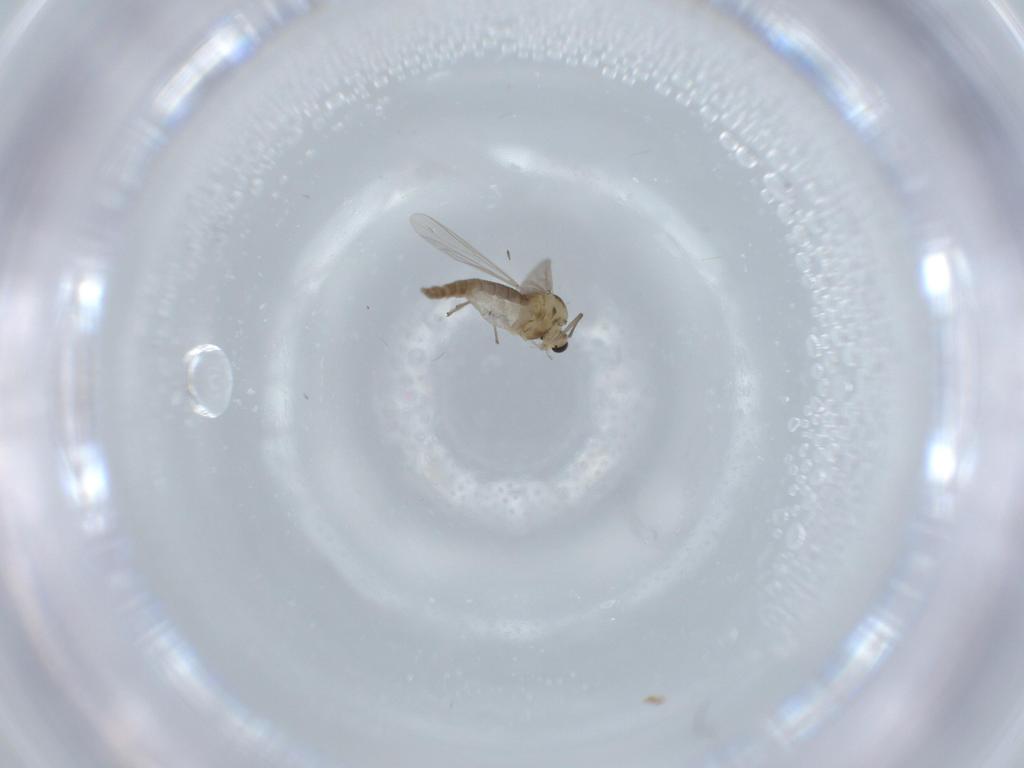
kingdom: Animalia
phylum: Arthropoda
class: Insecta
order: Diptera
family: Chironomidae
